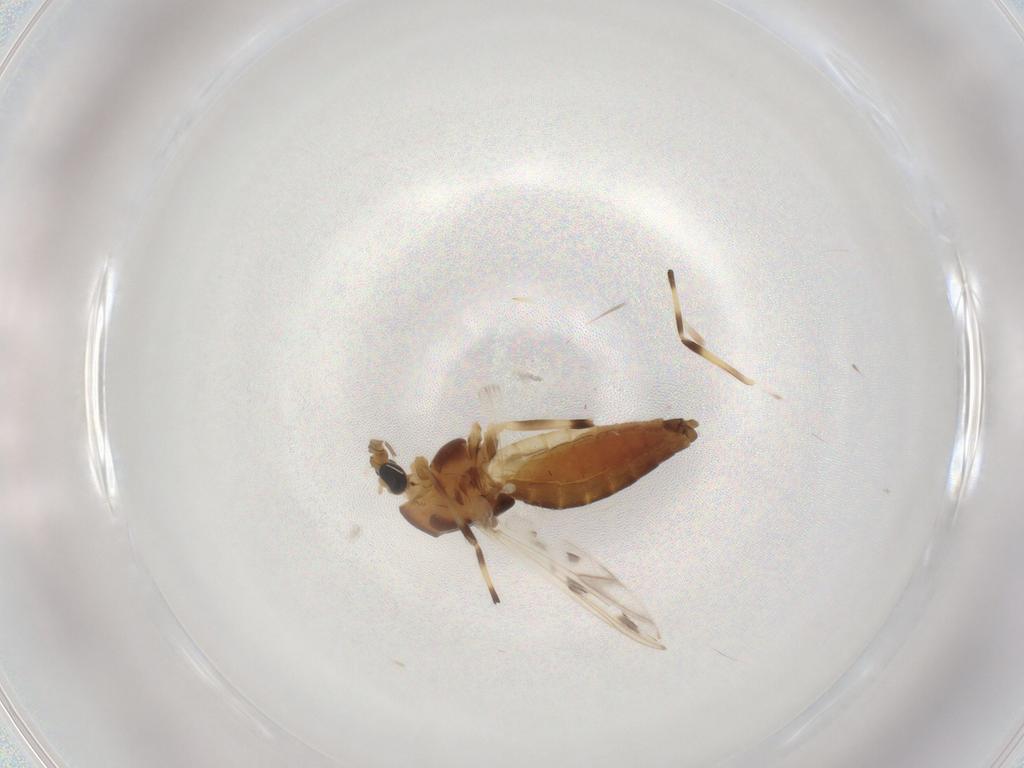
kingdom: Animalia
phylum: Arthropoda
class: Insecta
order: Diptera
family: Chironomidae
